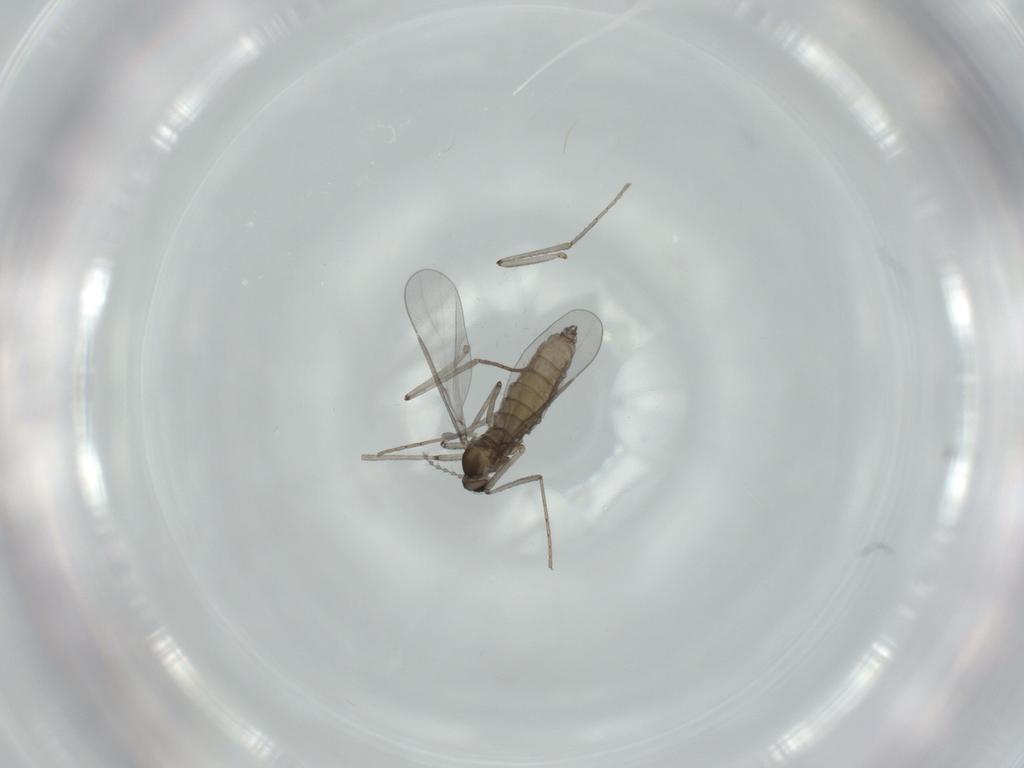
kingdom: Animalia
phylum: Arthropoda
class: Insecta
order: Diptera
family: Cecidomyiidae
